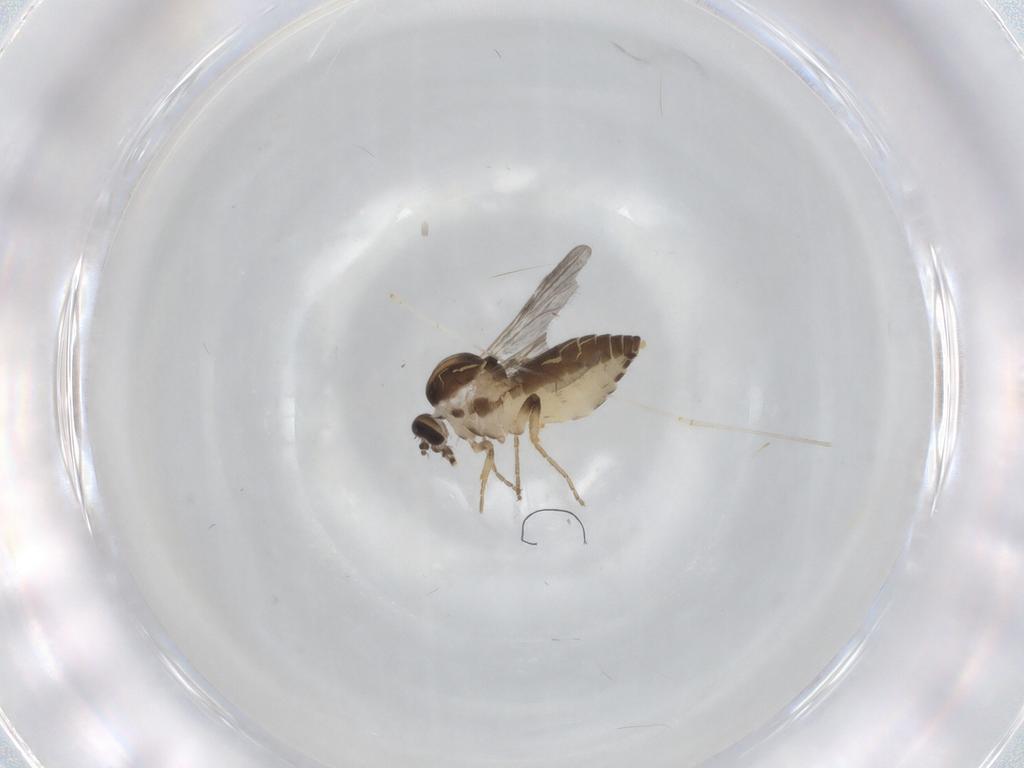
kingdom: Animalia
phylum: Arthropoda
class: Insecta
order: Diptera
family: Ceratopogonidae
